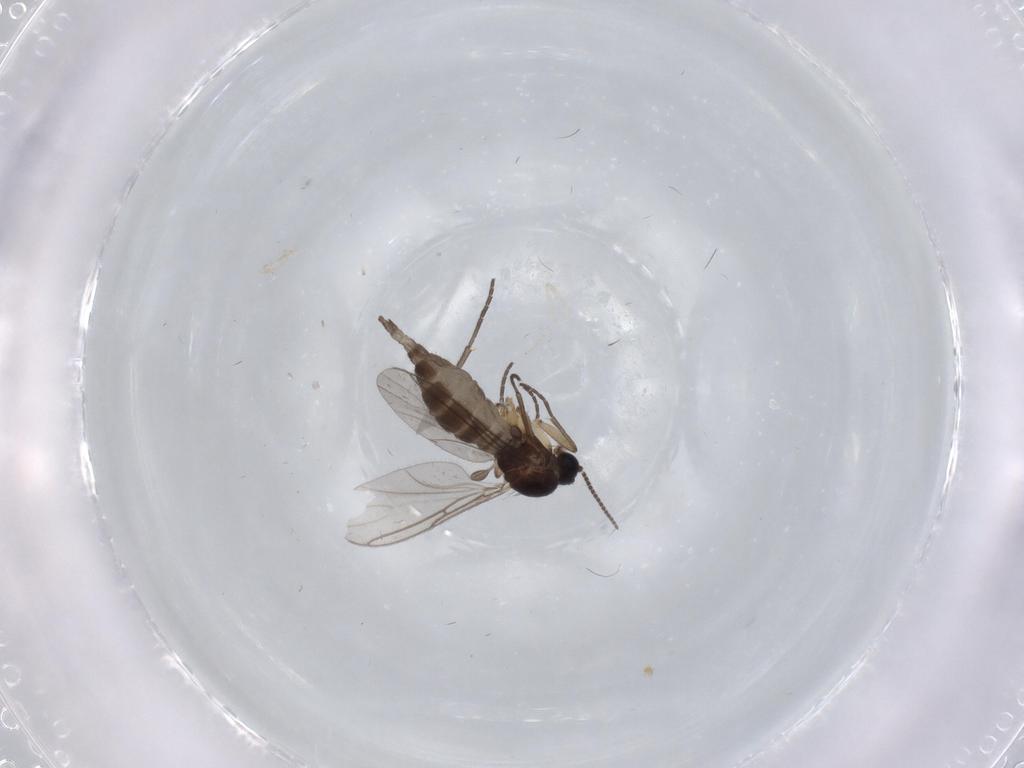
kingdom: Animalia
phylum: Arthropoda
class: Insecta
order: Diptera
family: Sciaridae
